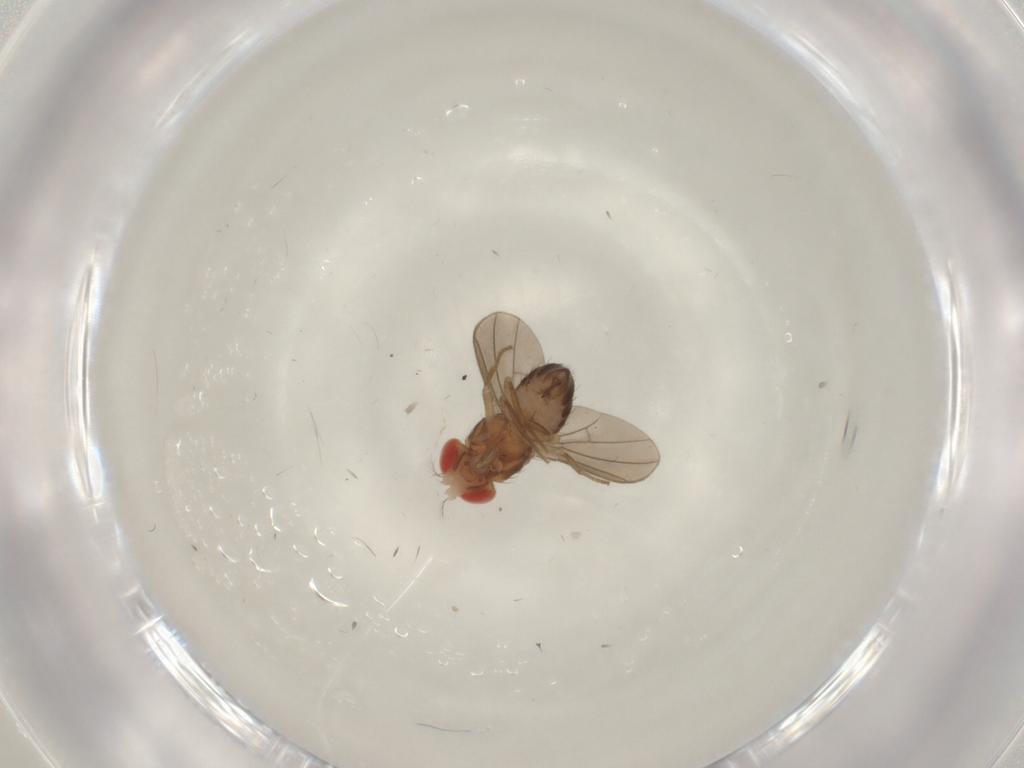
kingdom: Animalia
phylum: Arthropoda
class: Insecta
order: Diptera
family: Drosophilidae
